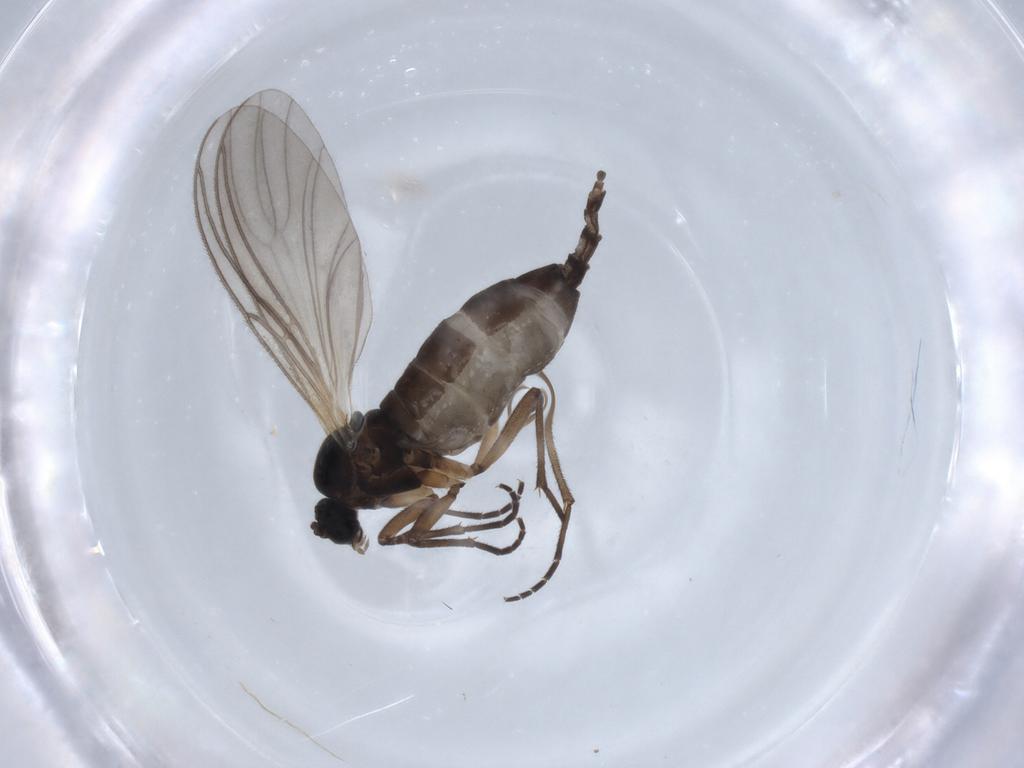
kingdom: Animalia
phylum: Arthropoda
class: Insecta
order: Diptera
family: Sciaridae
